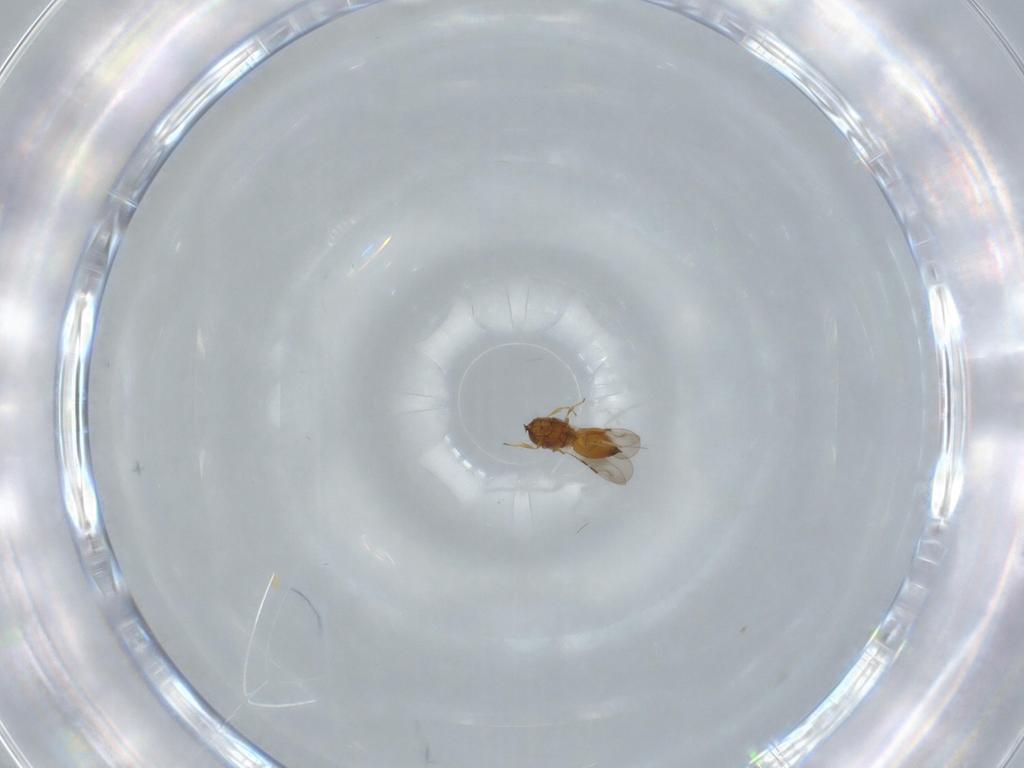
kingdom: Animalia
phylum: Arthropoda
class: Insecta
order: Hymenoptera
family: Ceraphronidae
